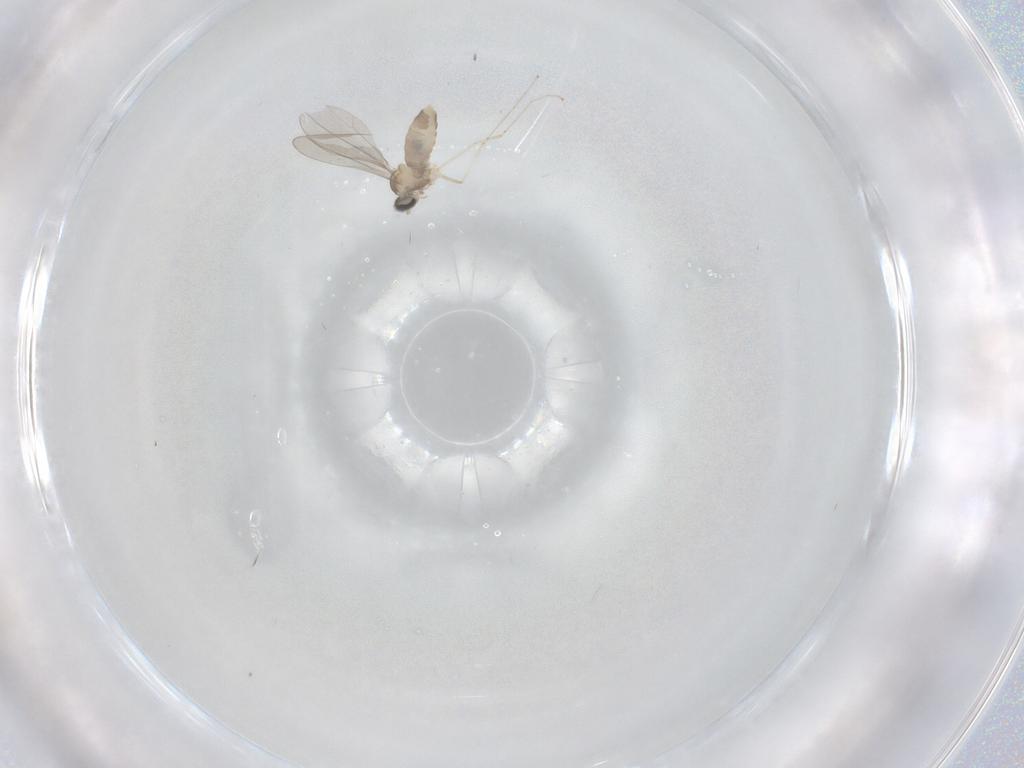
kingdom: Animalia
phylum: Arthropoda
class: Insecta
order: Diptera
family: Cecidomyiidae
